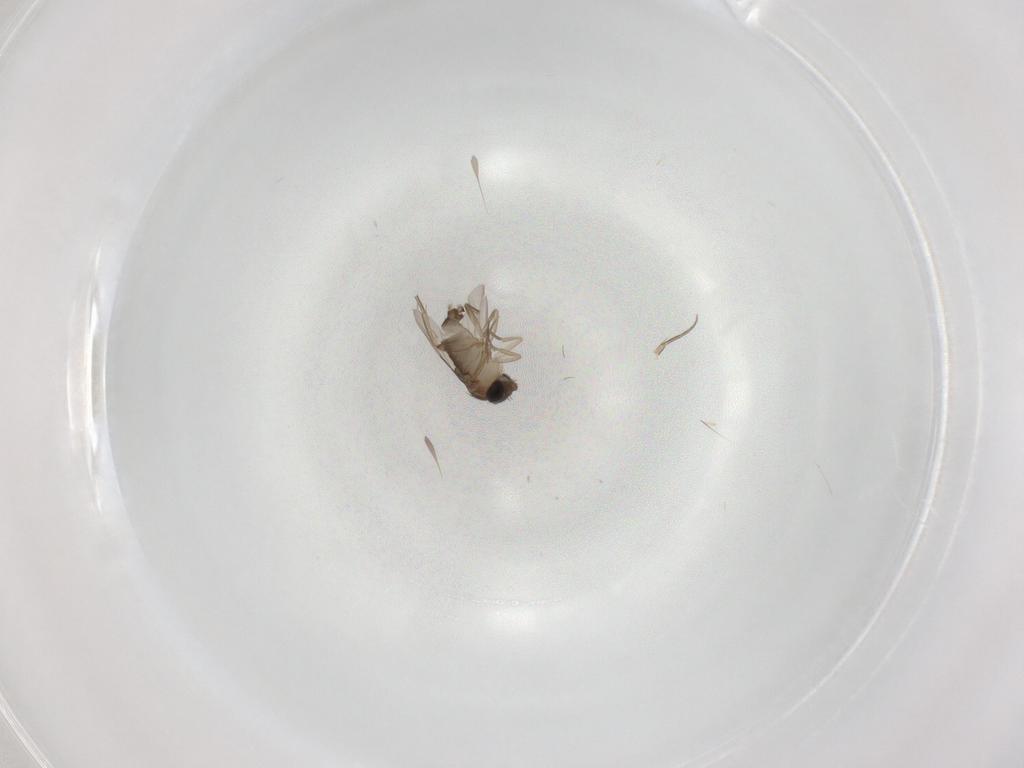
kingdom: Animalia
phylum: Arthropoda
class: Insecta
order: Diptera
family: Phoridae
